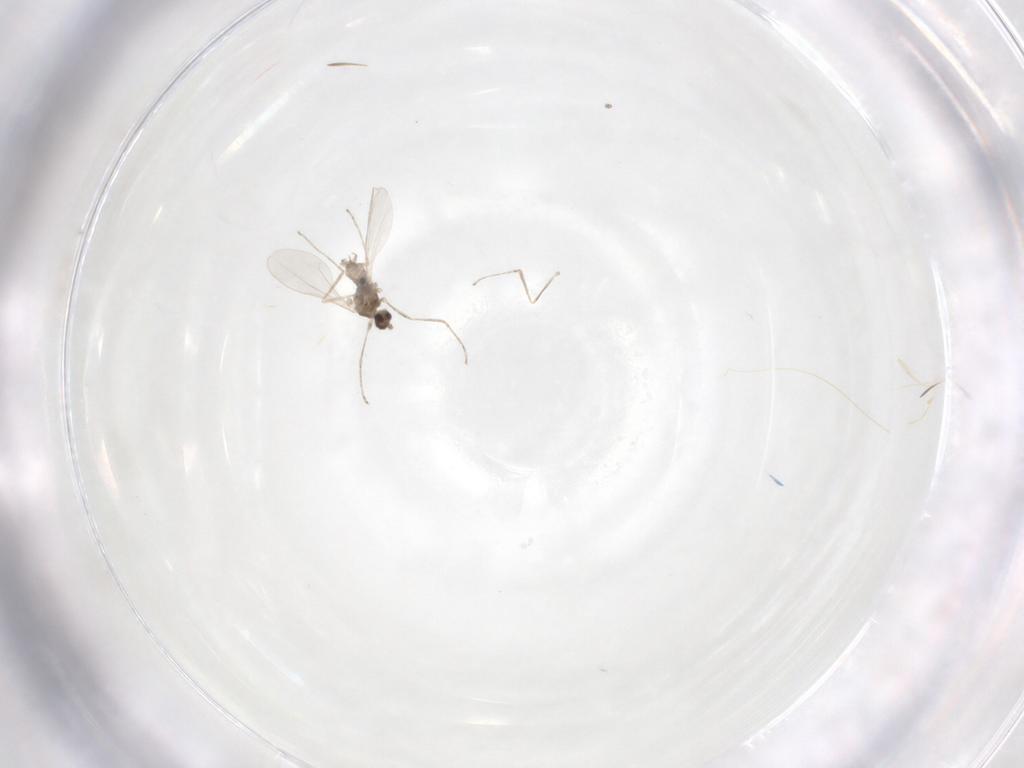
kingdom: Animalia
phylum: Arthropoda
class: Insecta
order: Diptera
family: Cecidomyiidae
